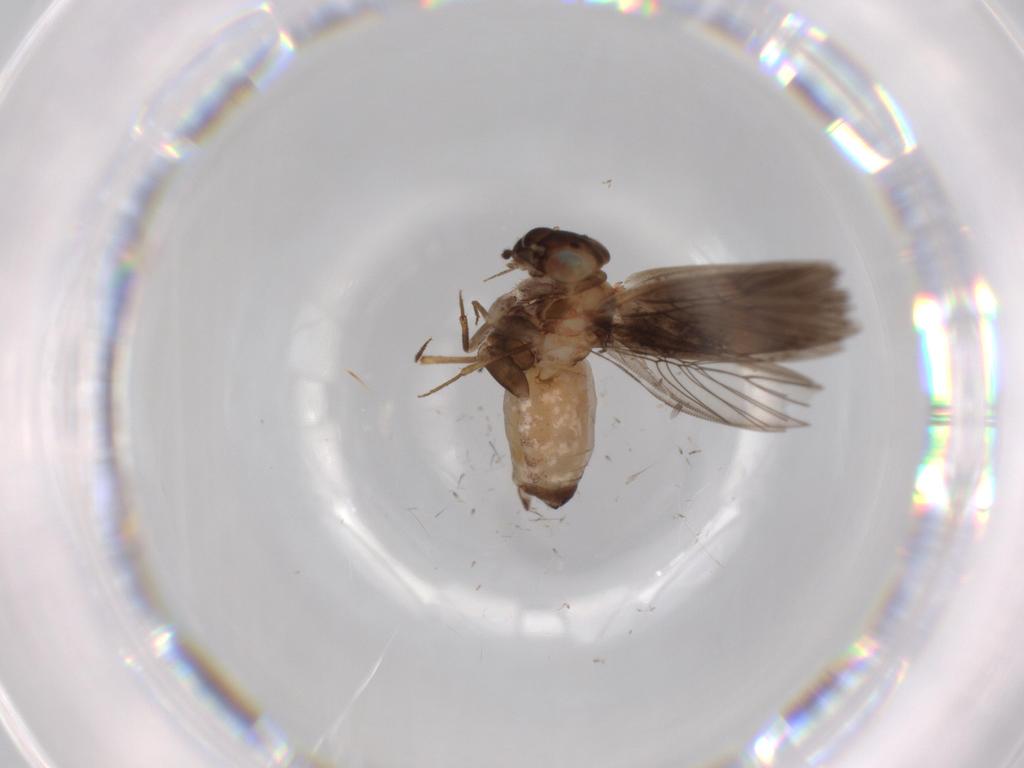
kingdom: Animalia
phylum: Arthropoda
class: Insecta
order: Psocodea
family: Lepidopsocidae
